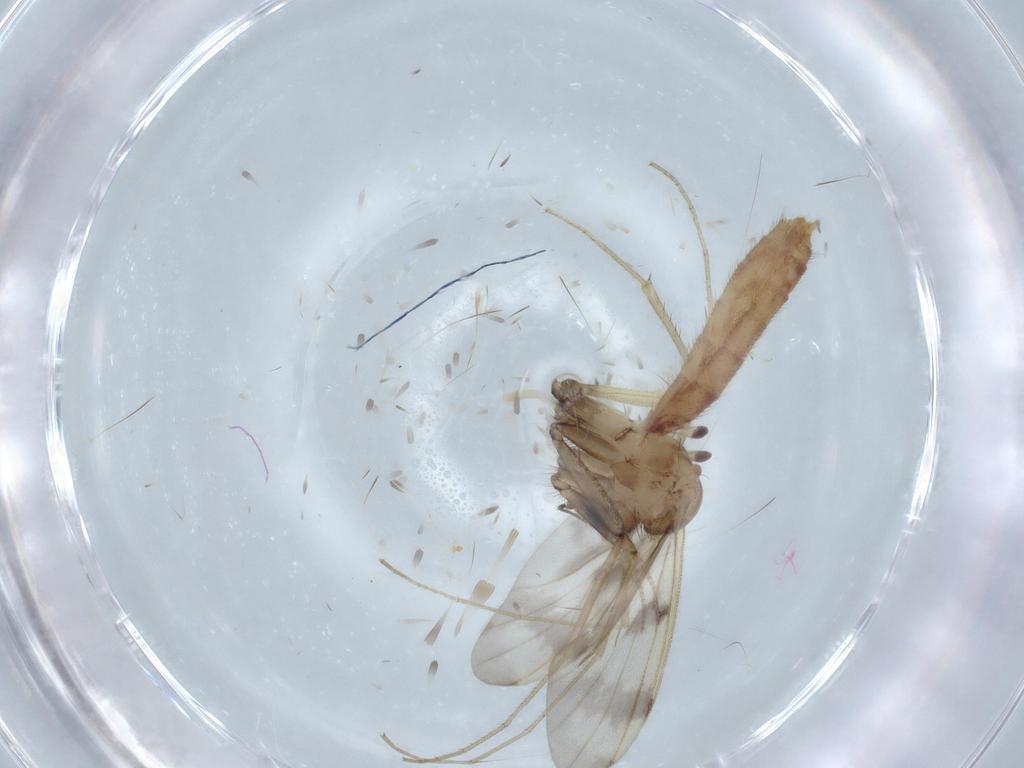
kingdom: Animalia
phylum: Arthropoda
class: Insecta
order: Diptera
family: Mycetophilidae
